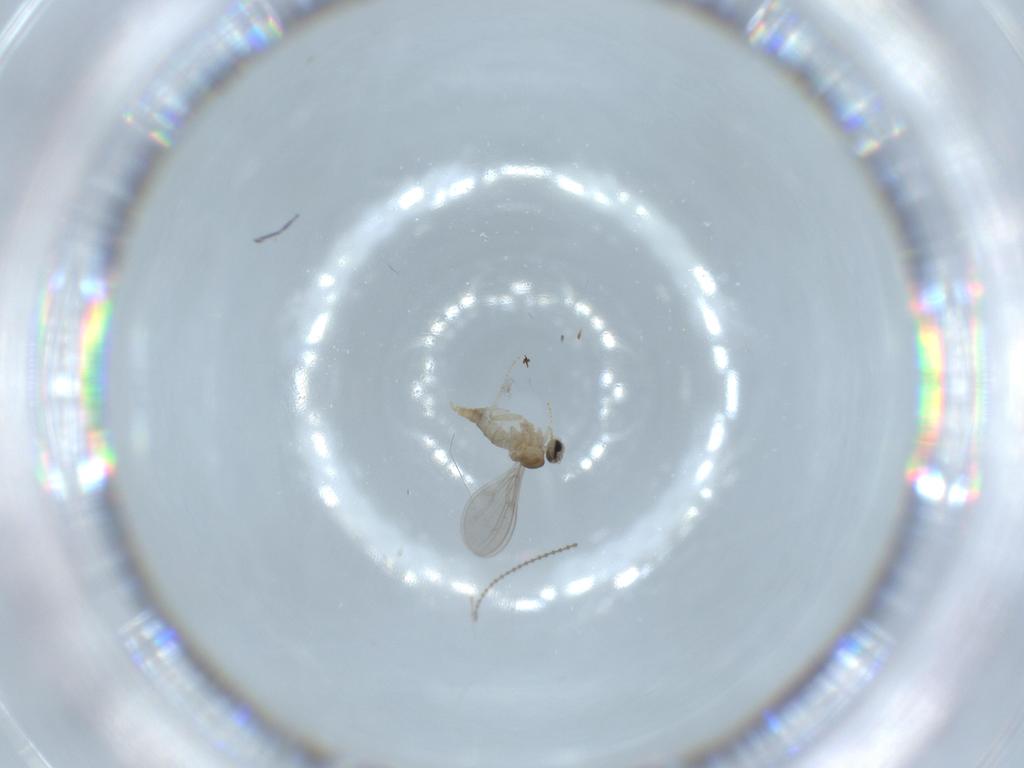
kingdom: Animalia
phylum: Arthropoda
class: Insecta
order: Diptera
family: Cecidomyiidae
